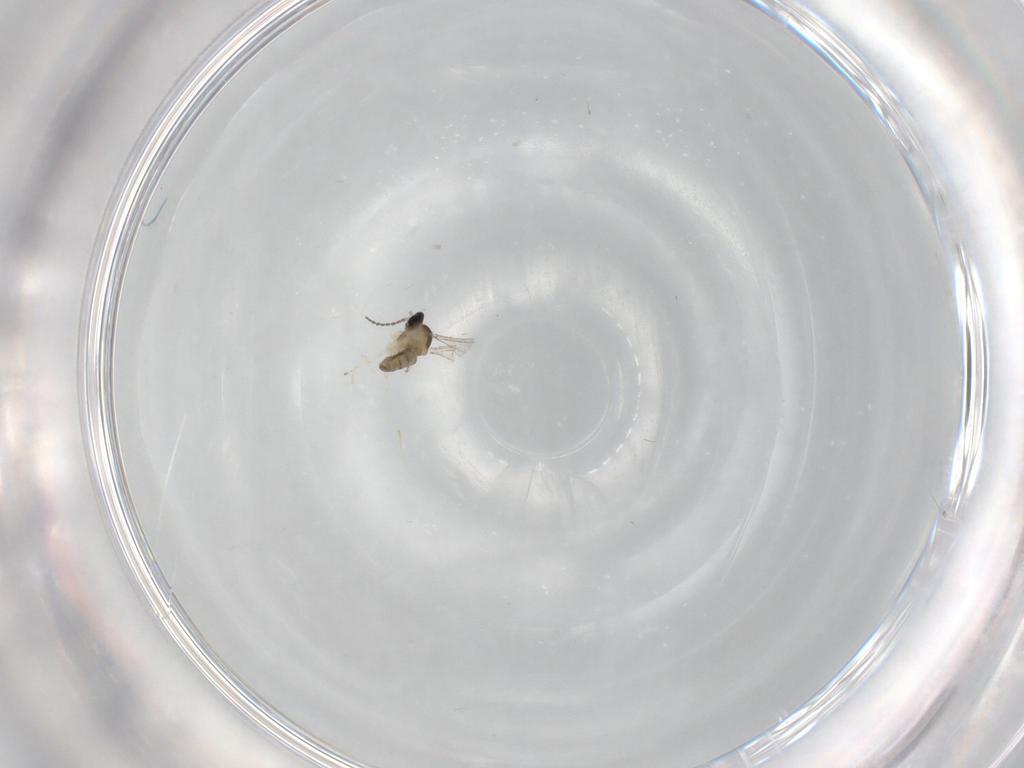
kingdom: Animalia
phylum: Arthropoda
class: Insecta
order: Diptera
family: Cecidomyiidae
